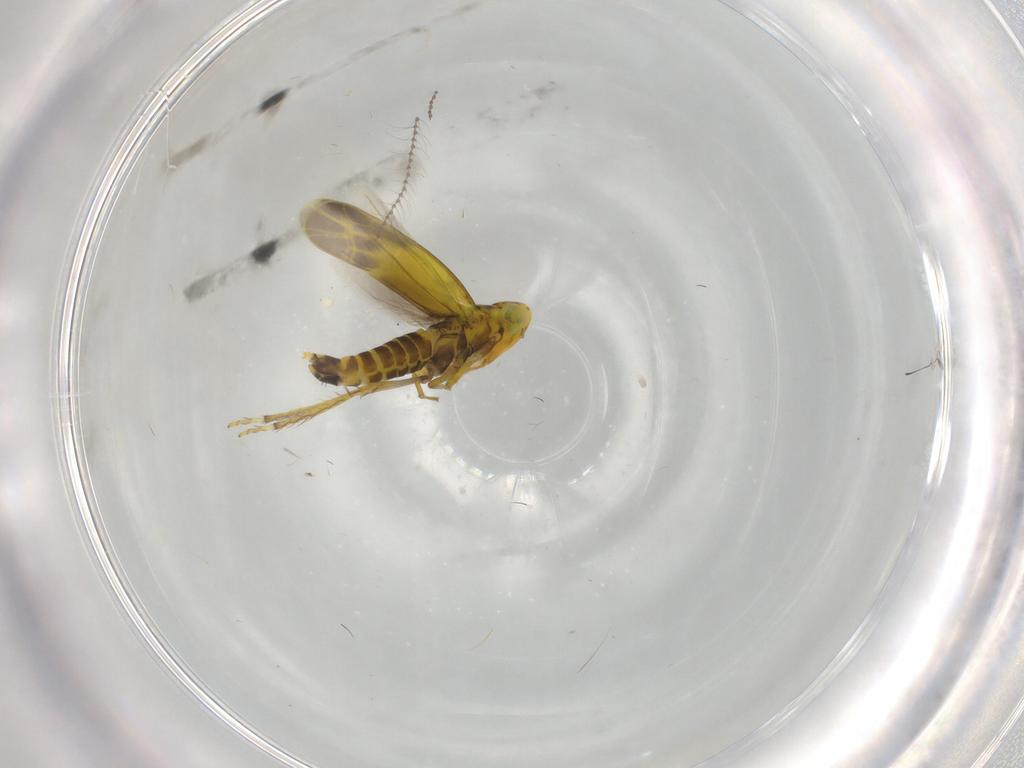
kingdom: Animalia
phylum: Arthropoda
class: Insecta
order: Hemiptera
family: Cicadellidae
